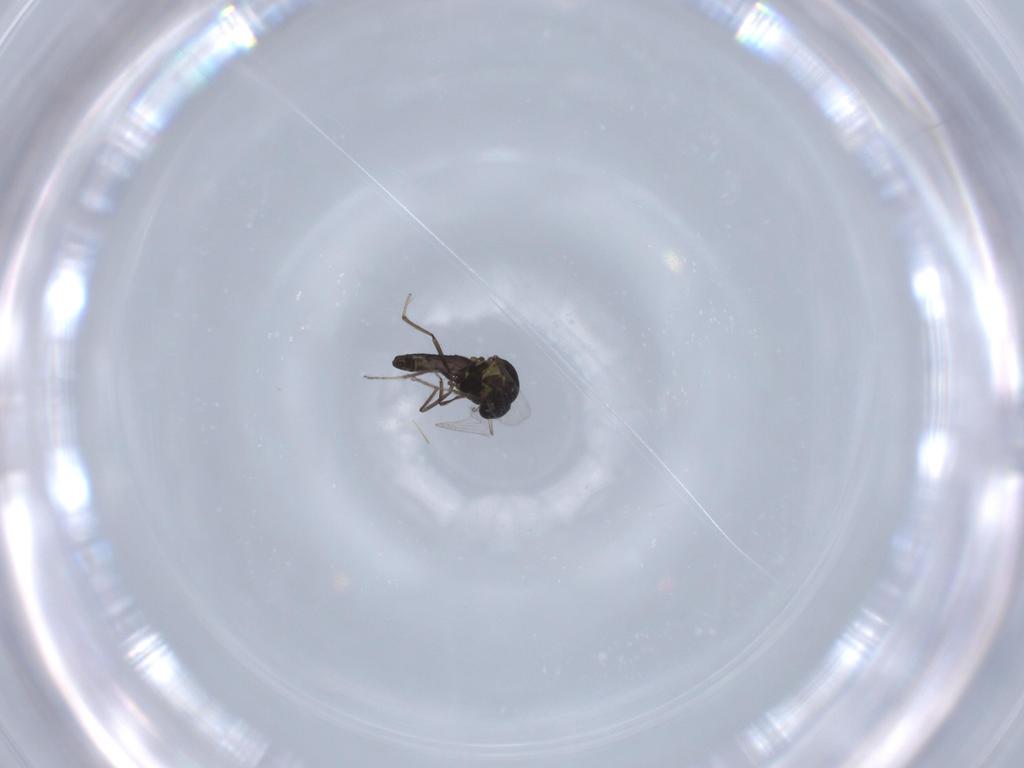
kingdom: Animalia
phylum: Arthropoda
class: Insecta
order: Diptera
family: Ceratopogonidae
